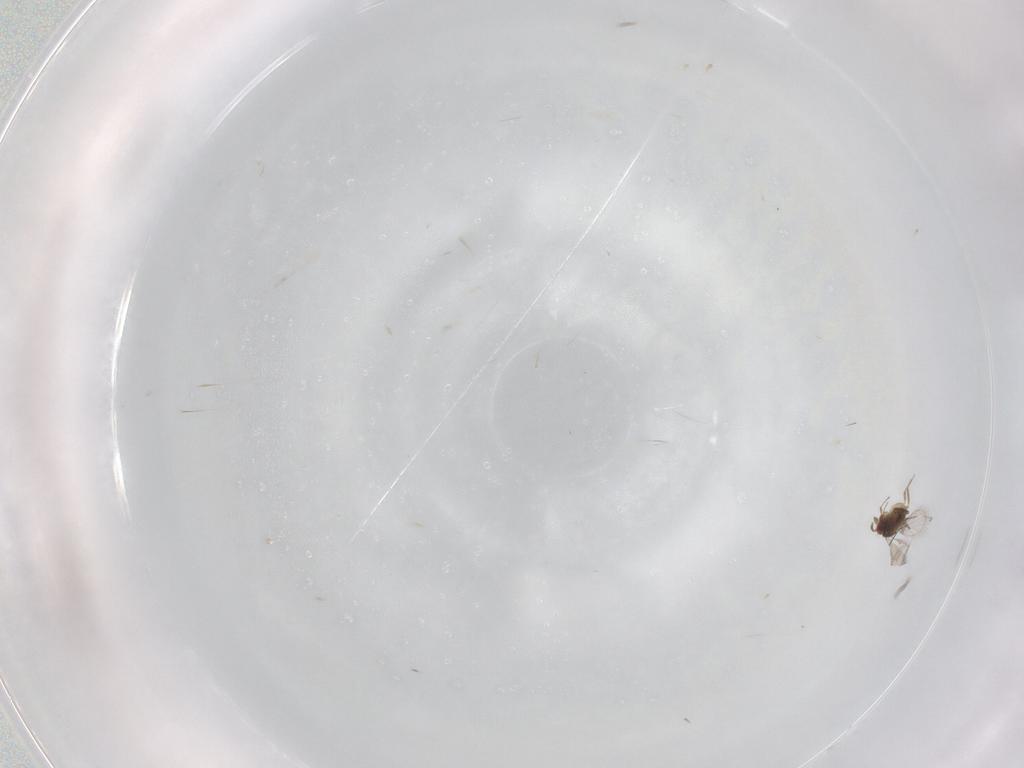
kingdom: Animalia
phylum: Arthropoda
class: Insecta
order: Hymenoptera
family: Trichogrammatidae
